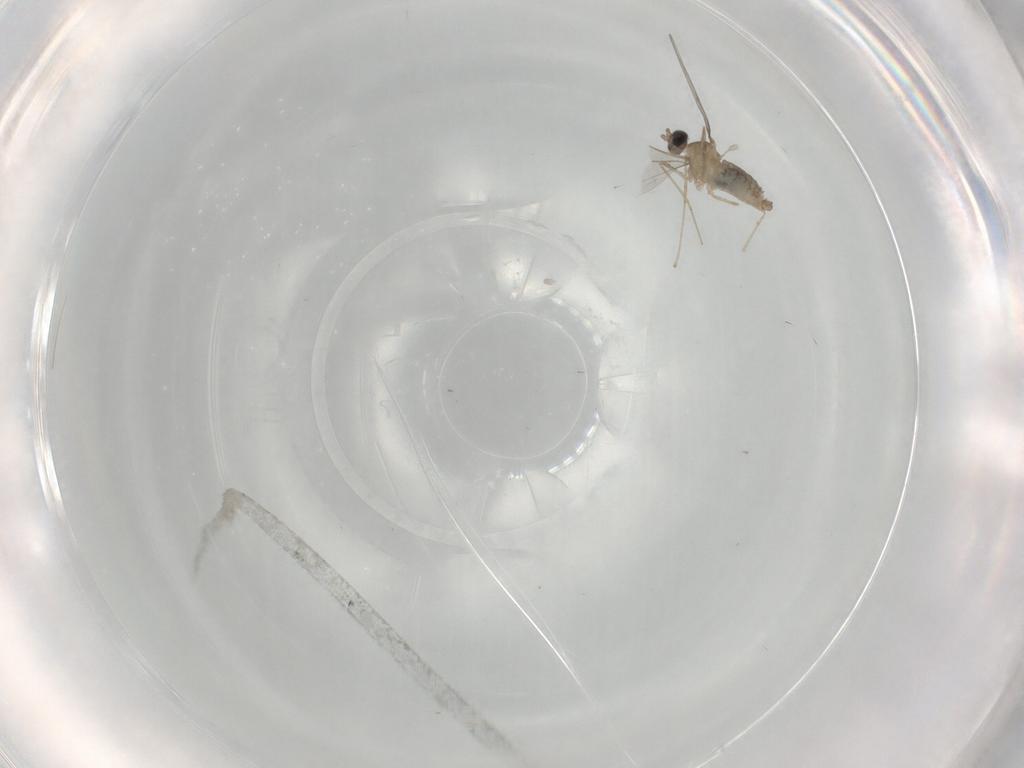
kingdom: Animalia
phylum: Arthropoda
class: Insecta
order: Diptera
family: Cecidomyiidae
